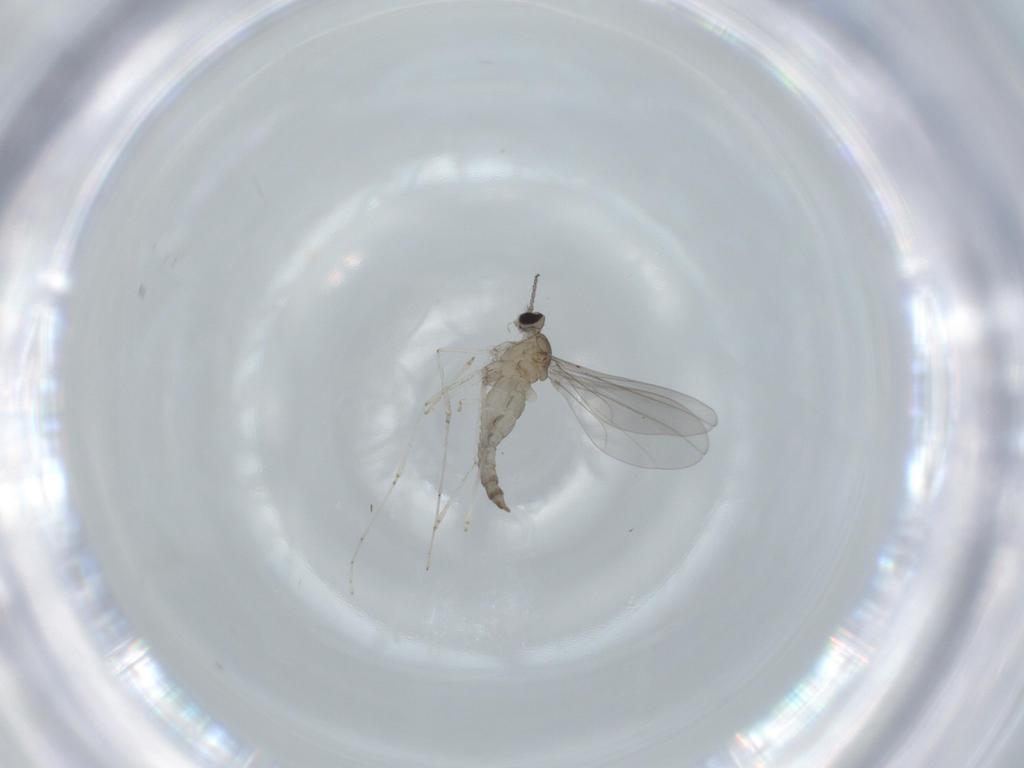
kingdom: Animalia
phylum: Arthropoda
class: Insecta
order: Diptera
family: Cecidomyiidae
